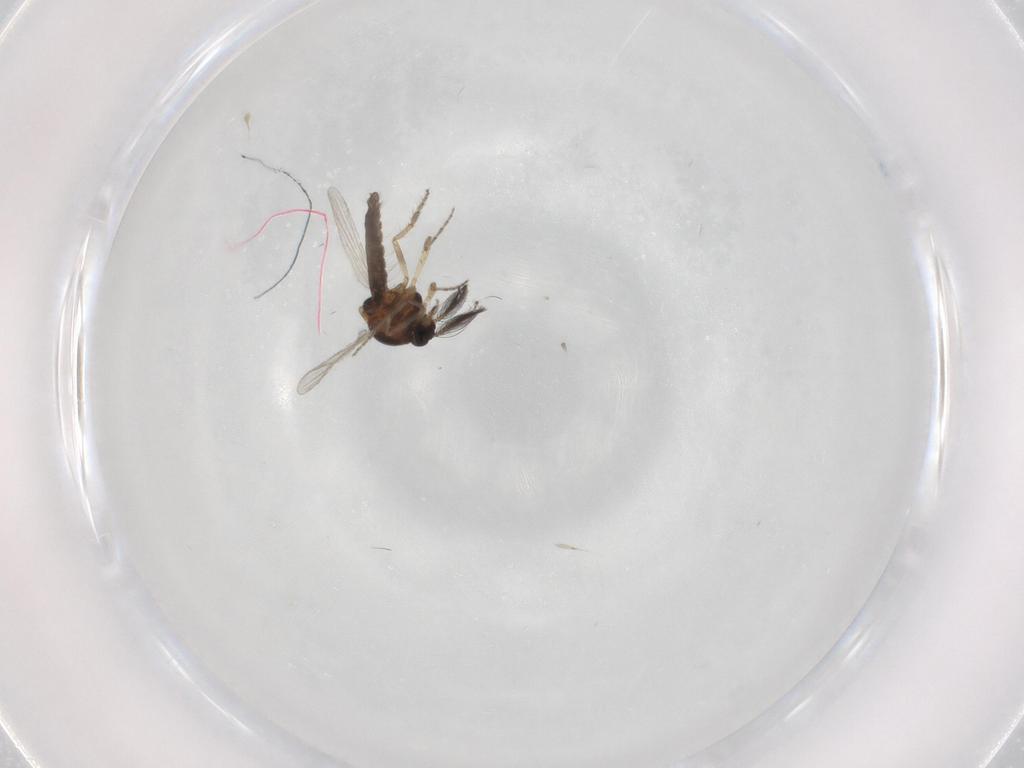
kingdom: Animalia
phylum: Arthropoda
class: Insecta
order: Diptera
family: Ceratopogonidae
